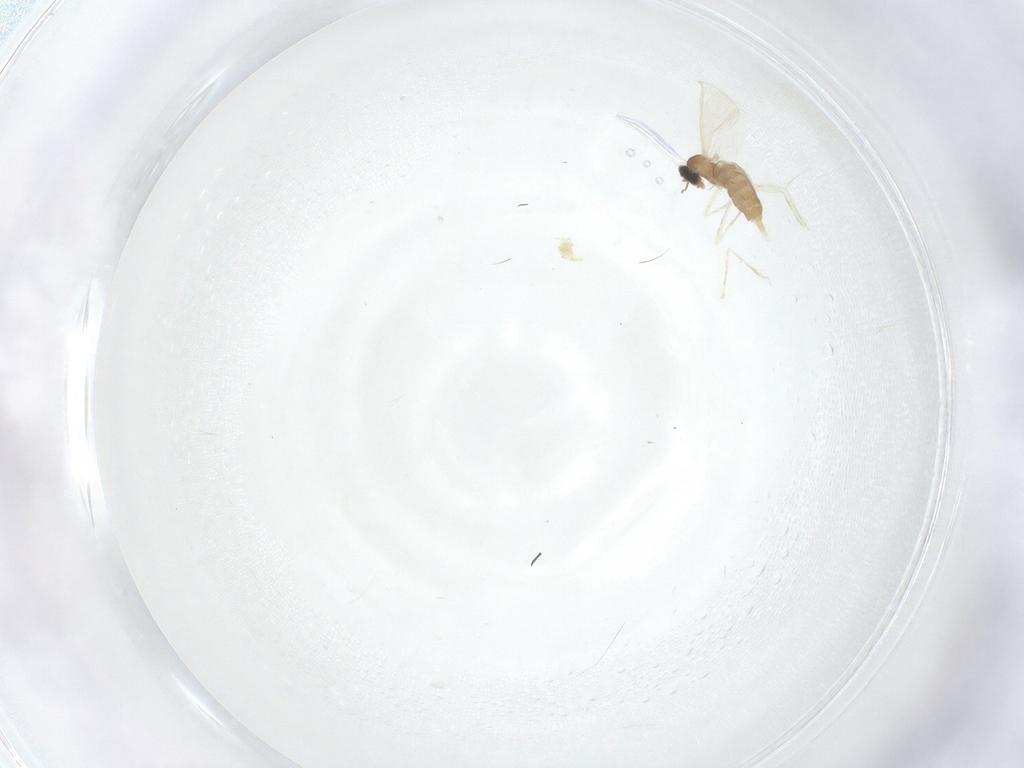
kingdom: Animalia
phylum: Arthropoda
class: Insecta
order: Diptera
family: Cecidomyiidae
